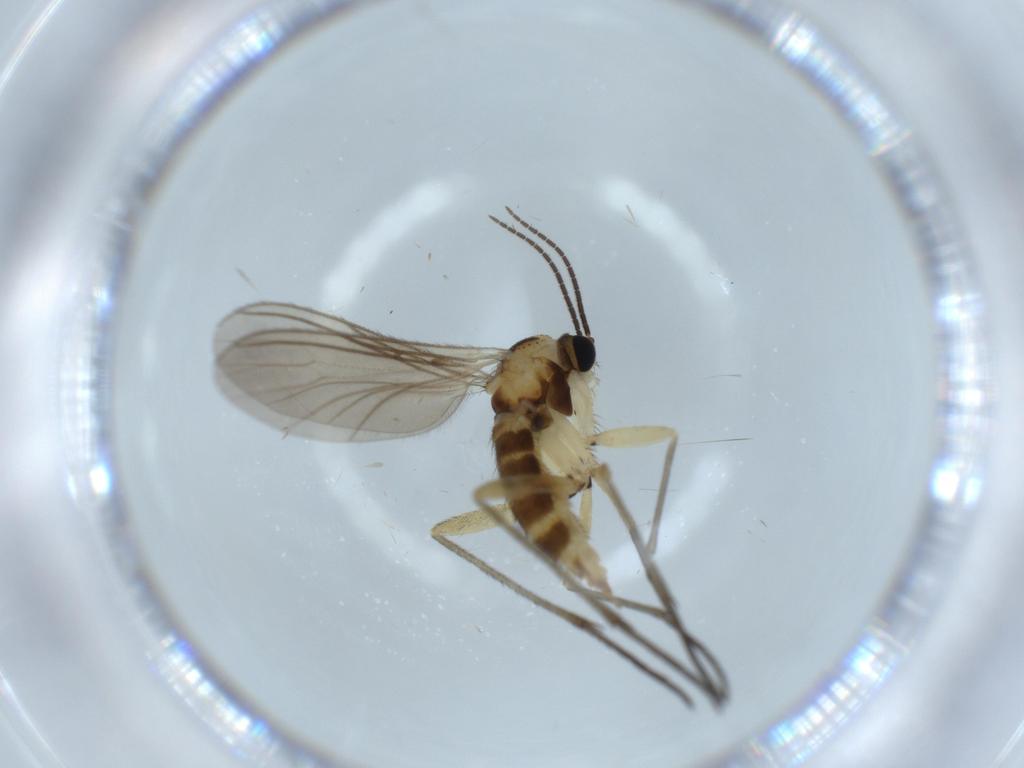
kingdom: Animalia
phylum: Arthropoda
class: Insecta
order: Diptera
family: Sciaridae
